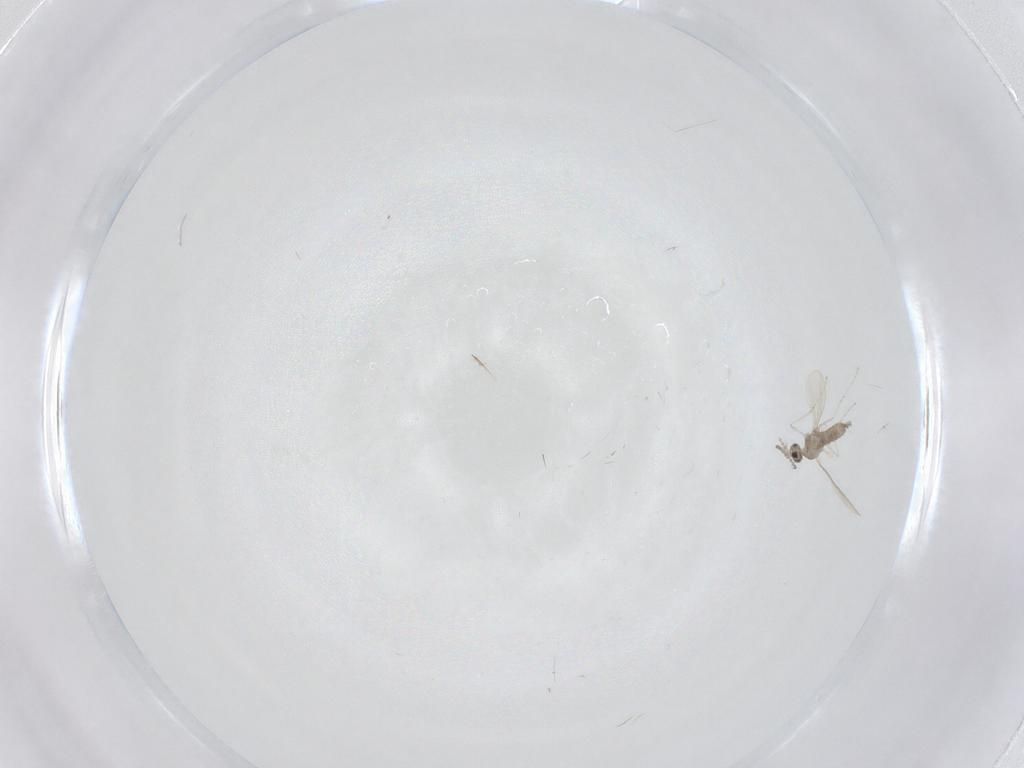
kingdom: Animalia
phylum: Arthropoda
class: Insecta
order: Diptera
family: Cecidomyiidae
